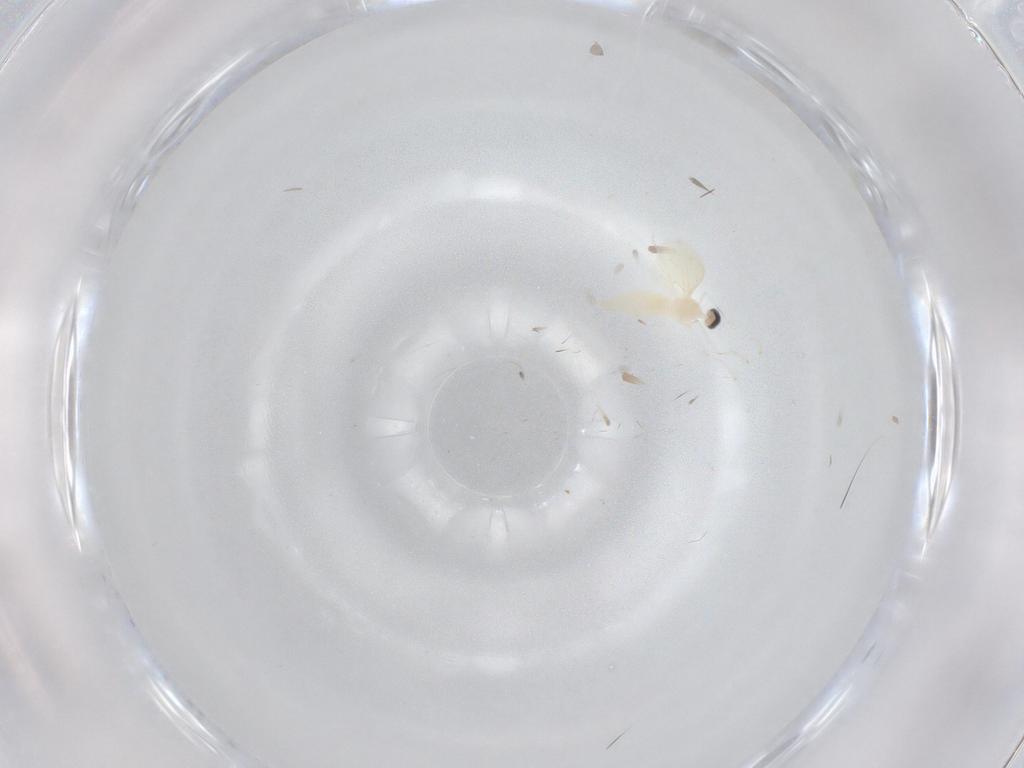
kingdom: Animalia
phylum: Arthropoda
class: Insecta
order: Diptera
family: Cecidomyiidae
